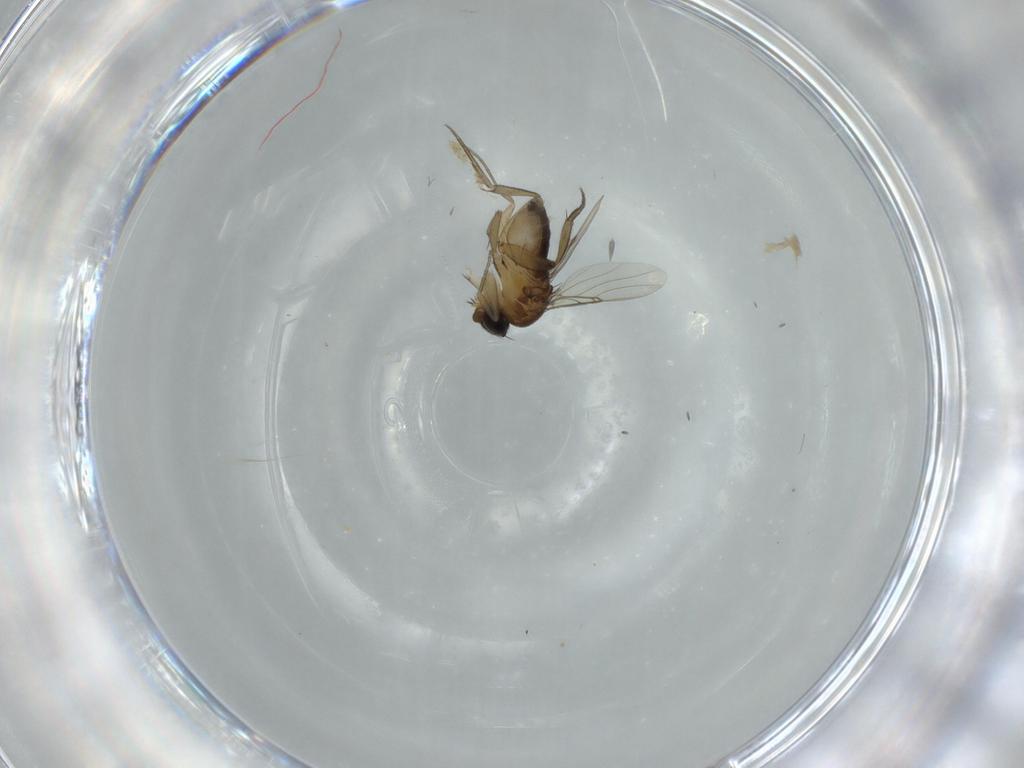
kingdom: Animalia
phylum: Arthropoda
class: Insecta
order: Diptera
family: Phoridae
